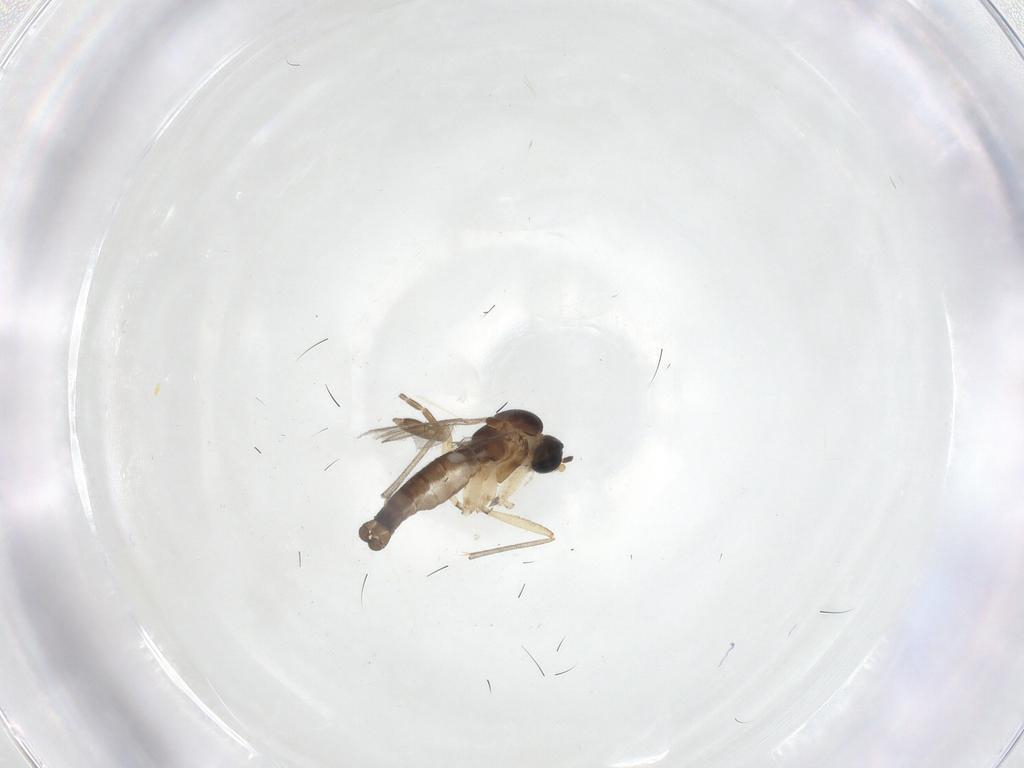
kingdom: Animalia
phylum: Arthropoda
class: Insecta
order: Diptera
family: Sciaridae
